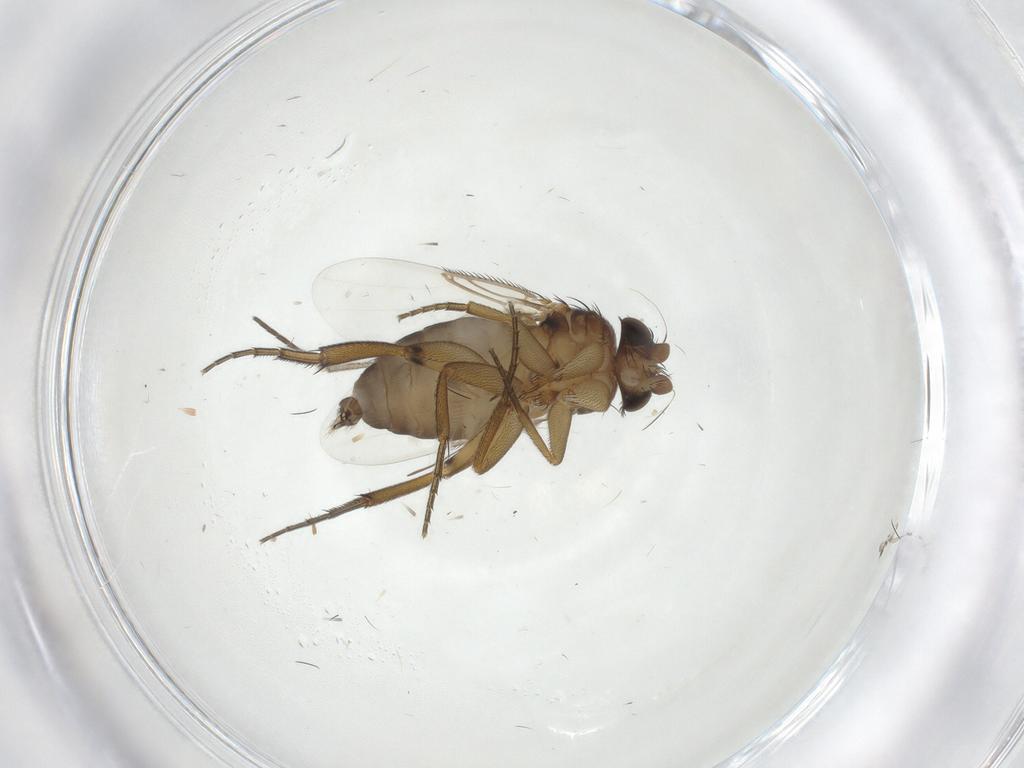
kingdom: Animalia
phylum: Arthropoda
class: Insecta
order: Diptera
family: Phoridae
